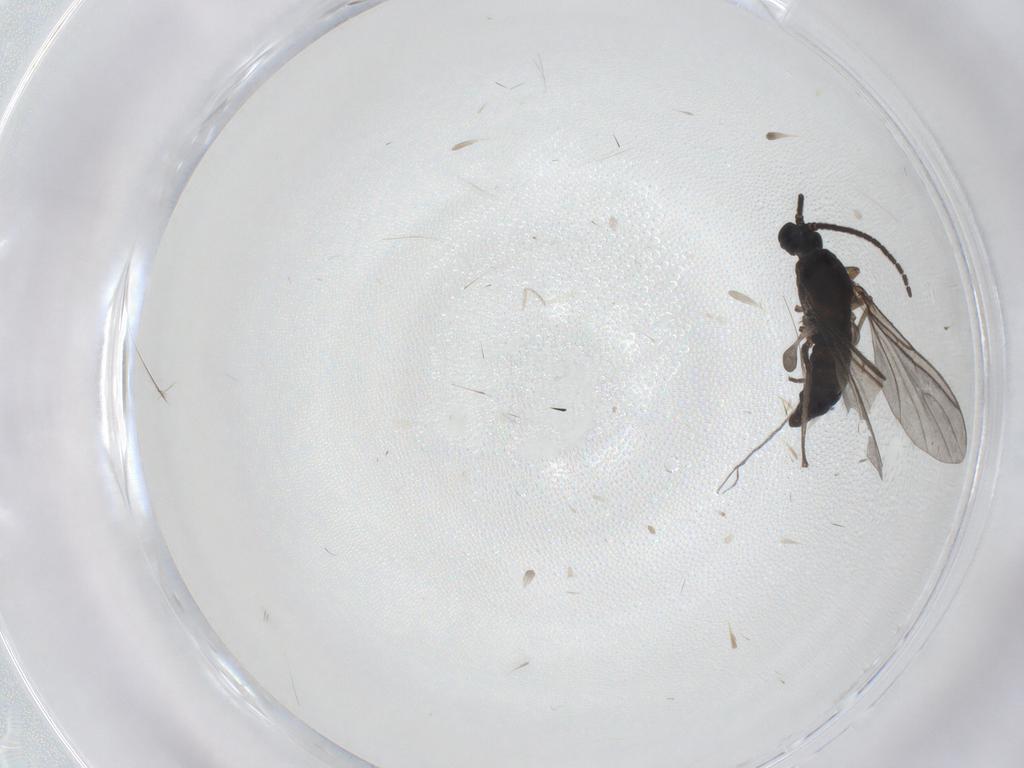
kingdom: Animalia
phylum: Arthropoda
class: Insecta
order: Diptera
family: Sciaridae
